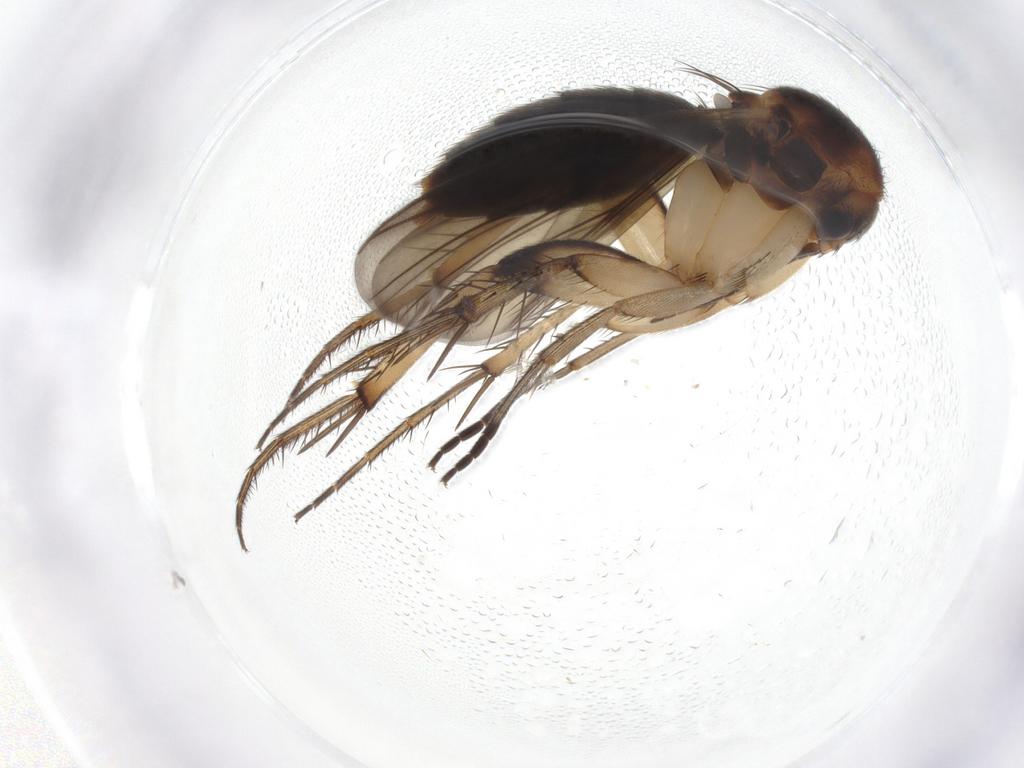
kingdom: Animalia
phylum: Arthropoda
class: Insecta
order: Diptera
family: Mycetophilidae
